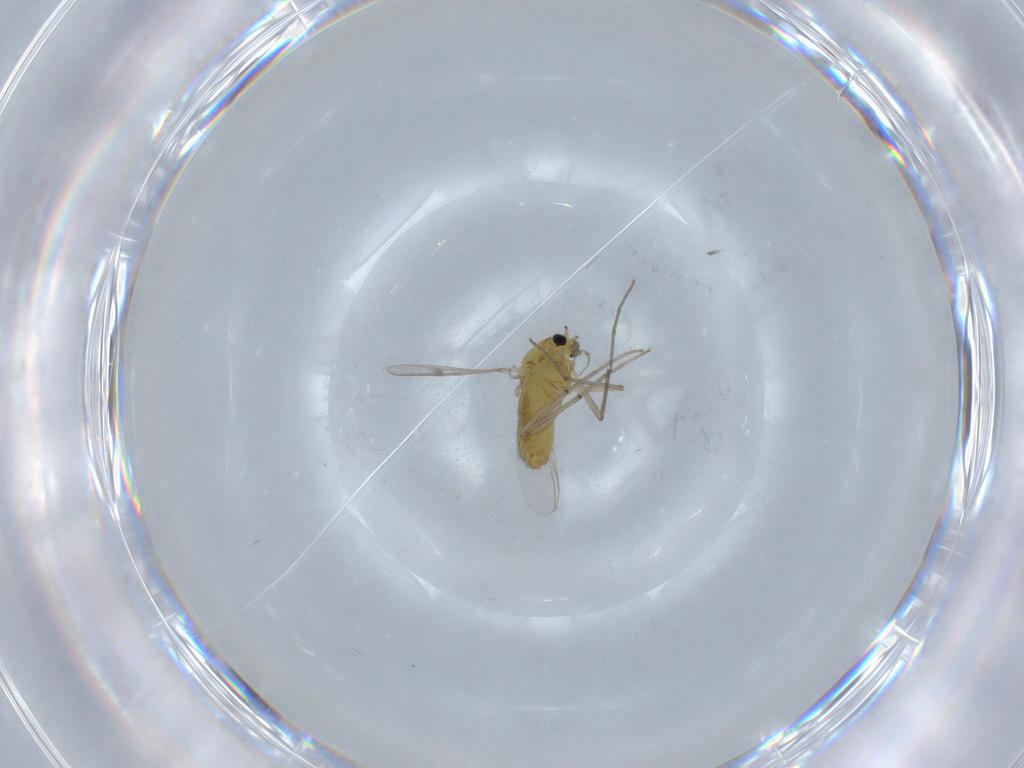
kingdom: Animalia
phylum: Arthropoda
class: Insecta
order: Diptera
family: Chironomidae
